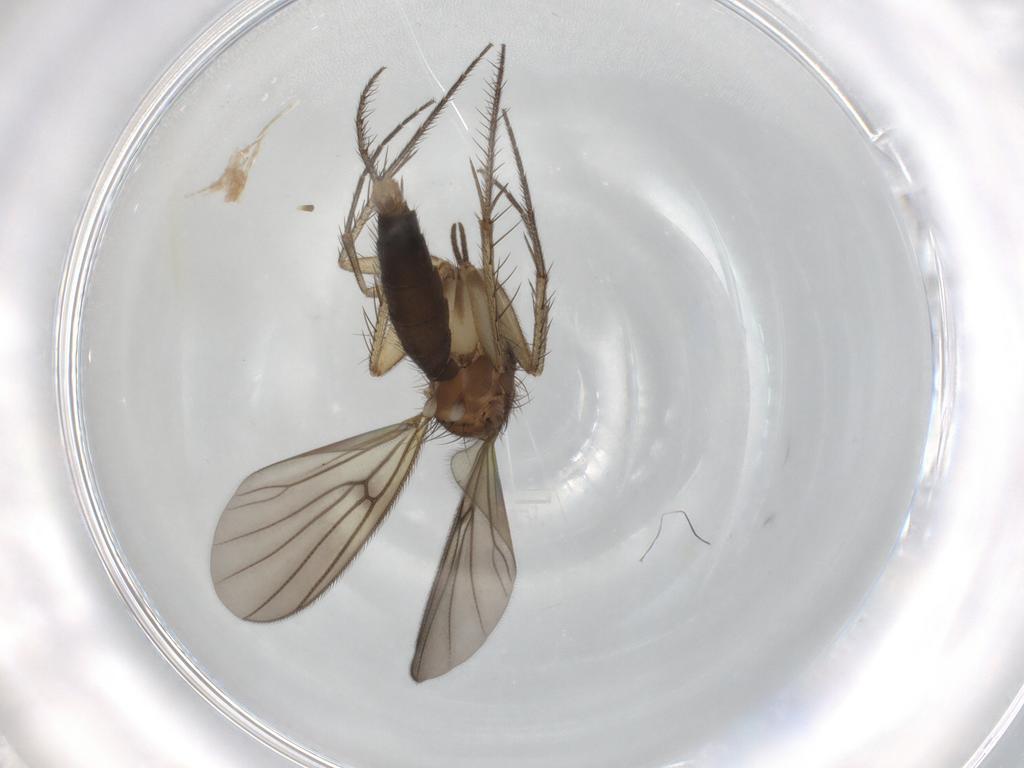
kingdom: Animalia
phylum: Arthropoda
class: Insecta
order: Diptera
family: Mycetophilidae
